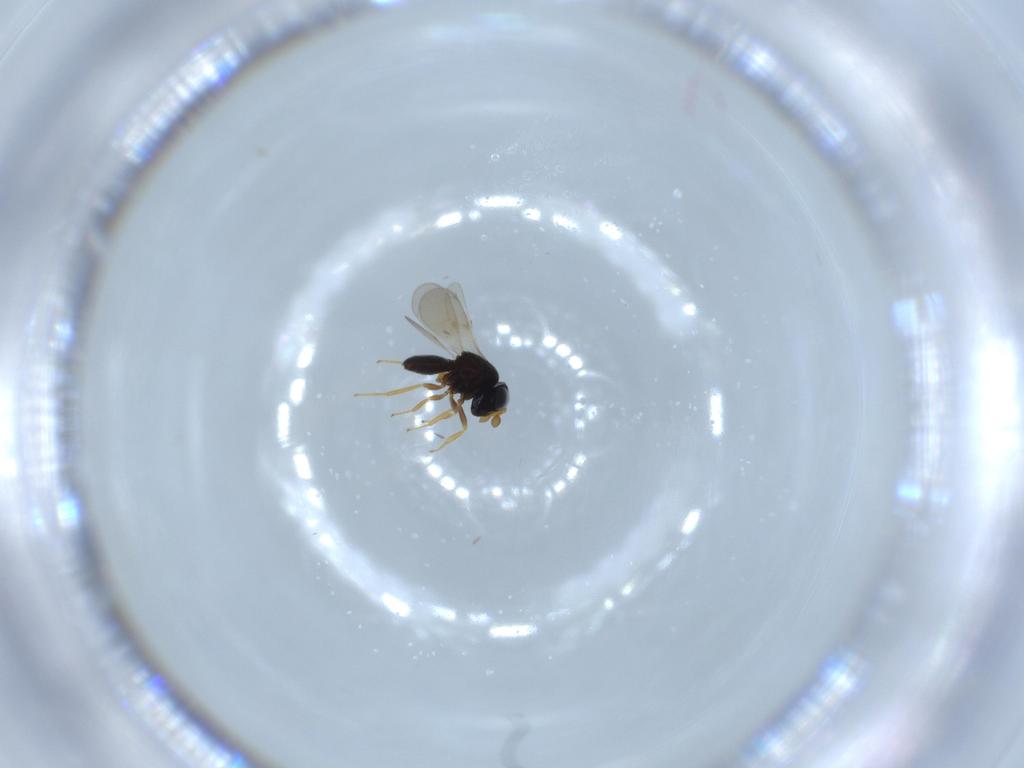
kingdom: Animalia
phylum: Arthropoda
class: Insecta
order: Hymenoptera
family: Scelionidae
